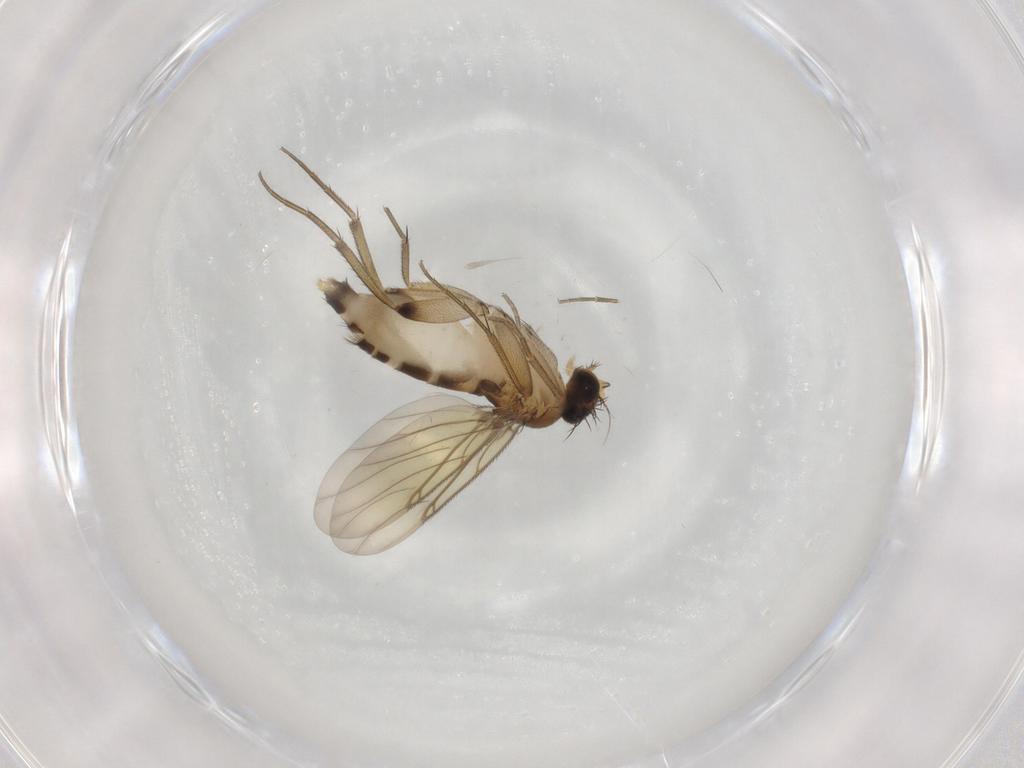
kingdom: Animalia
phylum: Arthropoda
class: Insecta
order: Diptera
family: Phoridae
